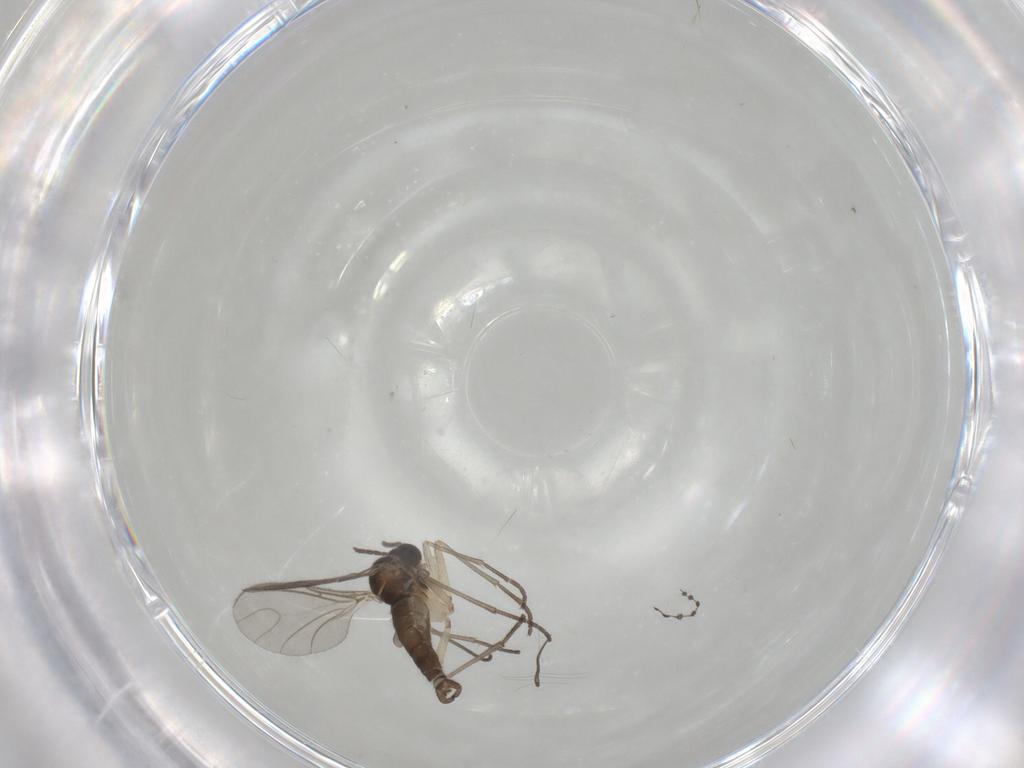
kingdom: Animalia
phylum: Arthropoda
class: Insecta
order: Diptera
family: Sciaridae
